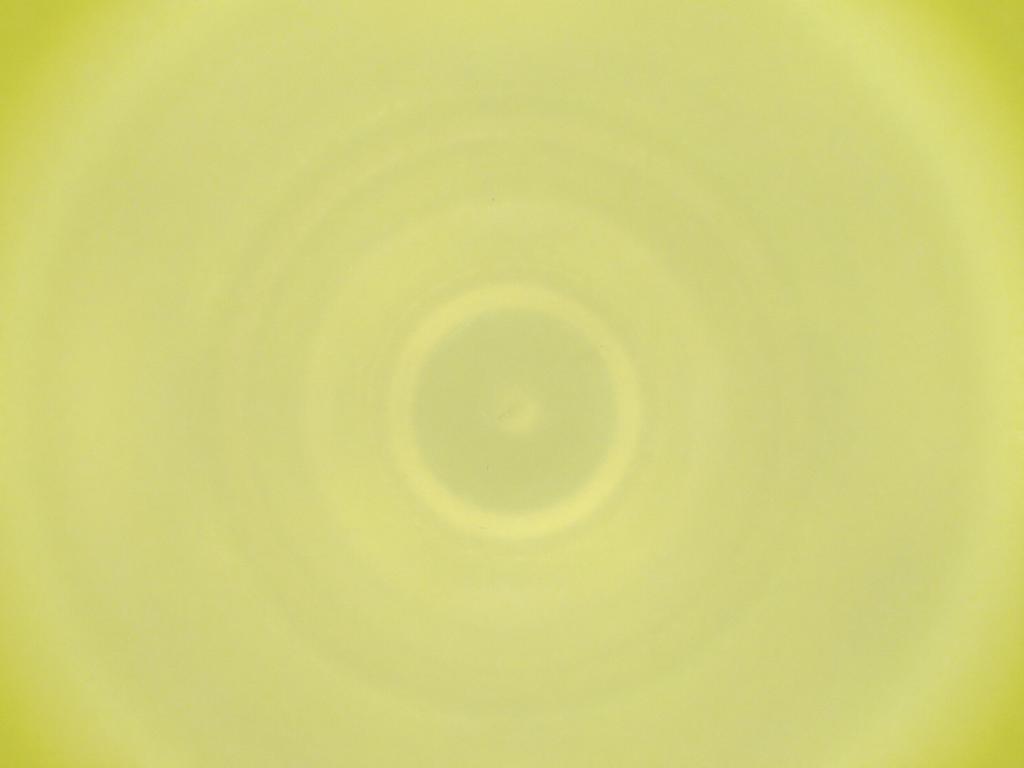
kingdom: Animalia
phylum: Arthropoda
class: Insecta
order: Diptera
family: Cecidomyiidae
